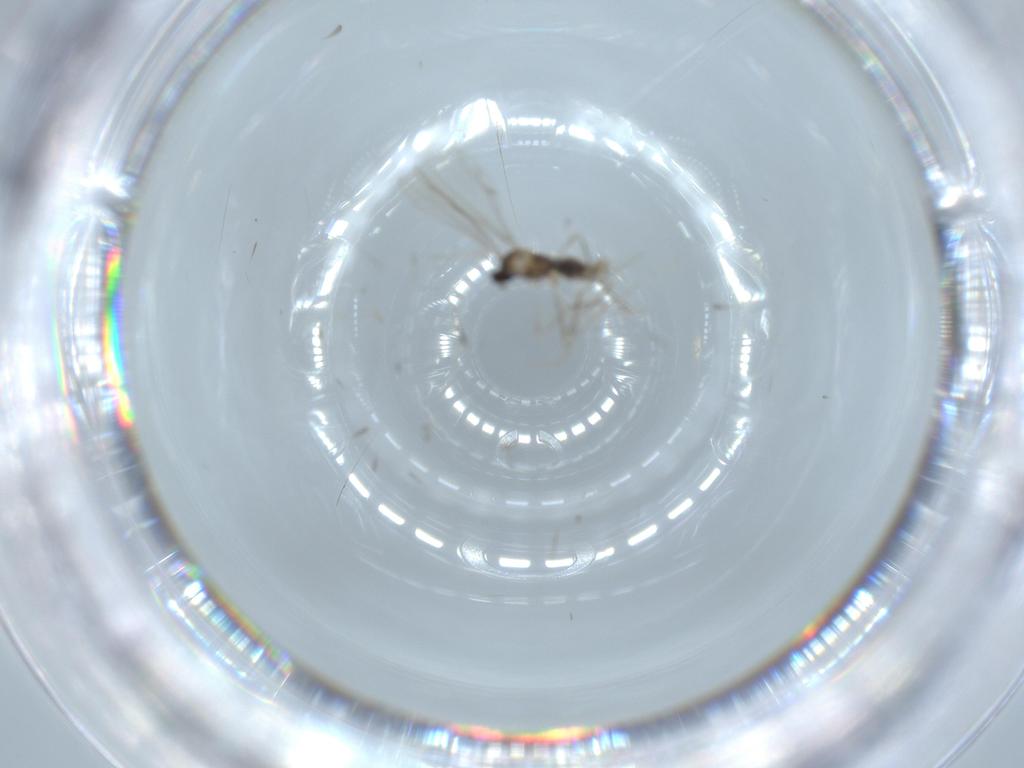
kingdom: Animalia
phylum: Arthropoda
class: Insecta
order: Diptera
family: Cecidomyiidae
